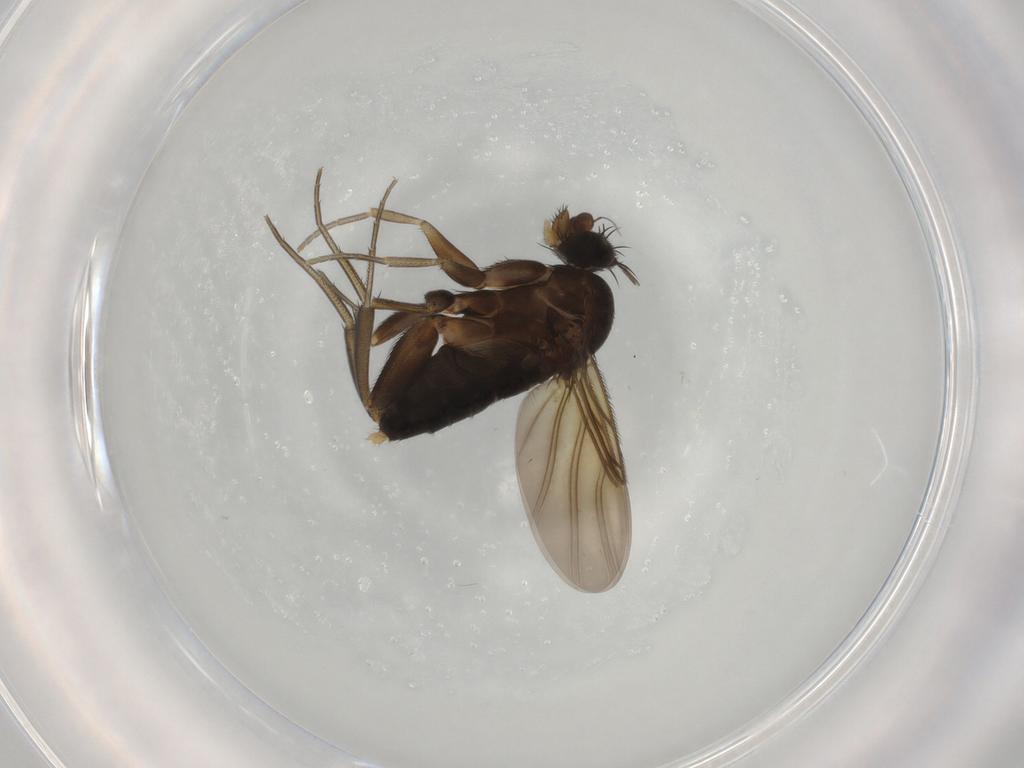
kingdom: Animalia
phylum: Arthropoda
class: Insecta
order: Diptera
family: Phoridae
